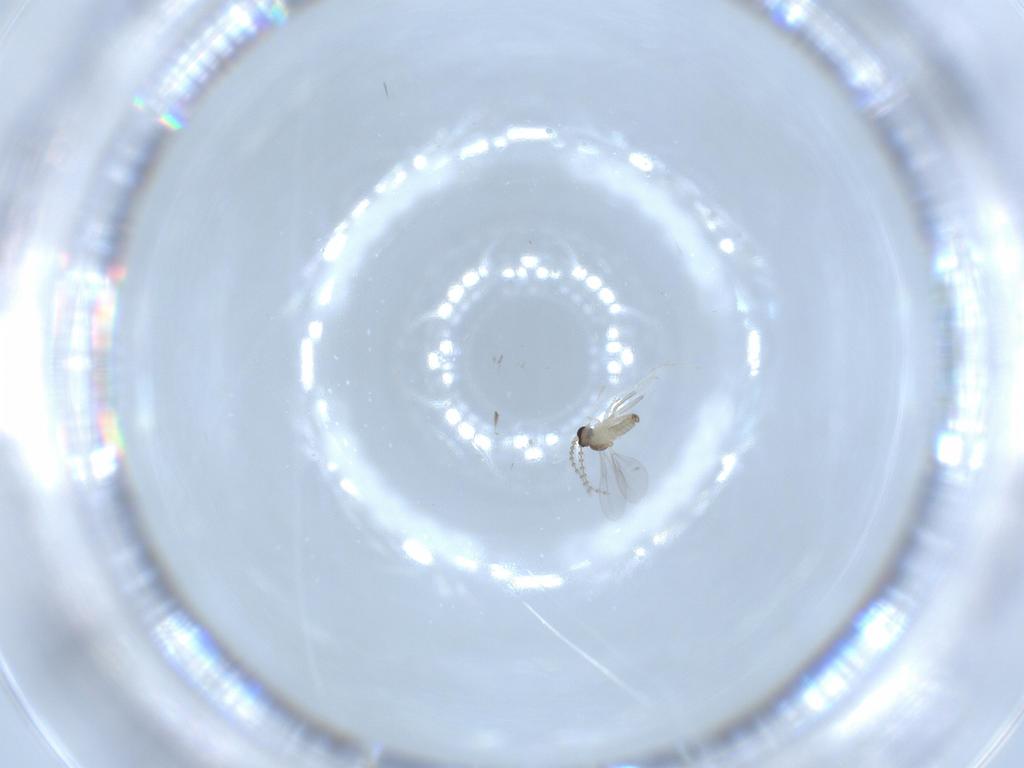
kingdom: Animalia
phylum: Arthropoda
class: Insecta
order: Diptera
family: Cecidomyiidae
